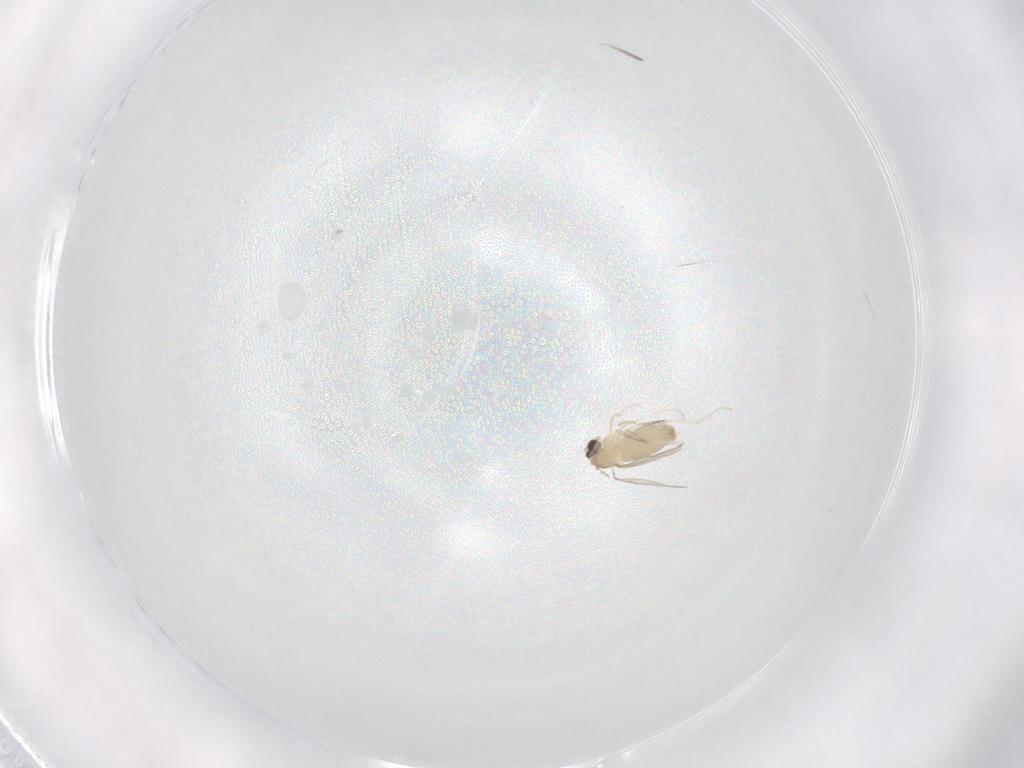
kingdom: Animalia
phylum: Arthropoda
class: Insecta
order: Diptera
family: Cecidomyiidae
